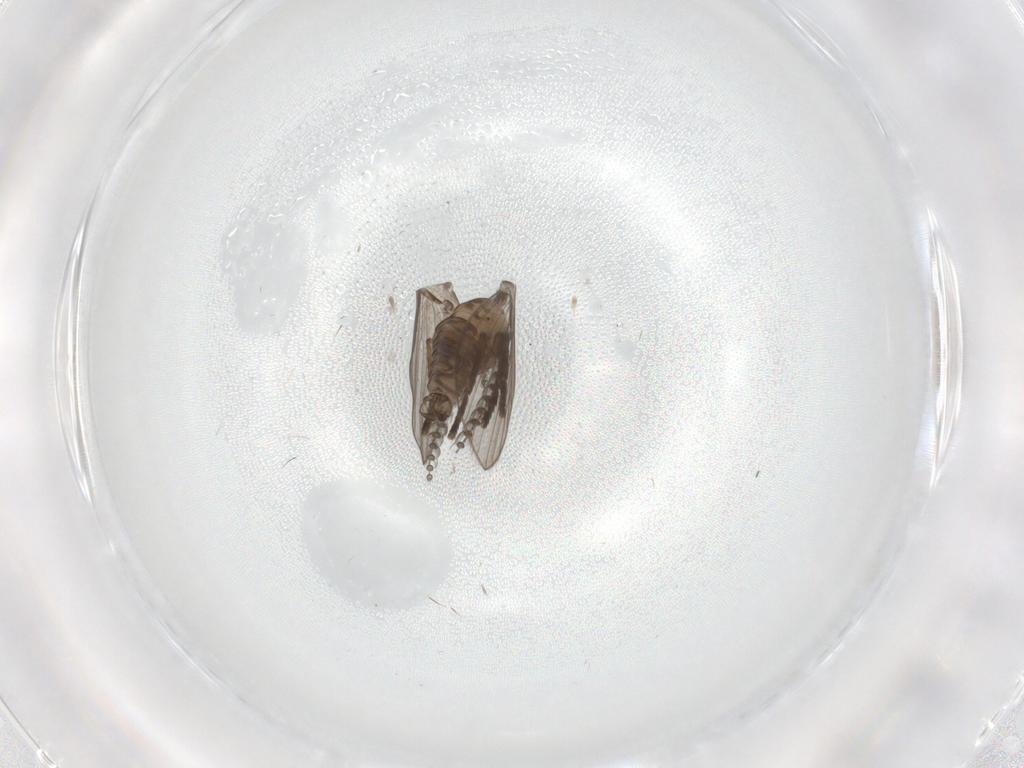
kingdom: Animalia
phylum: Arthropoda
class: Insecta
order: Diptera
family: Psychodidae
